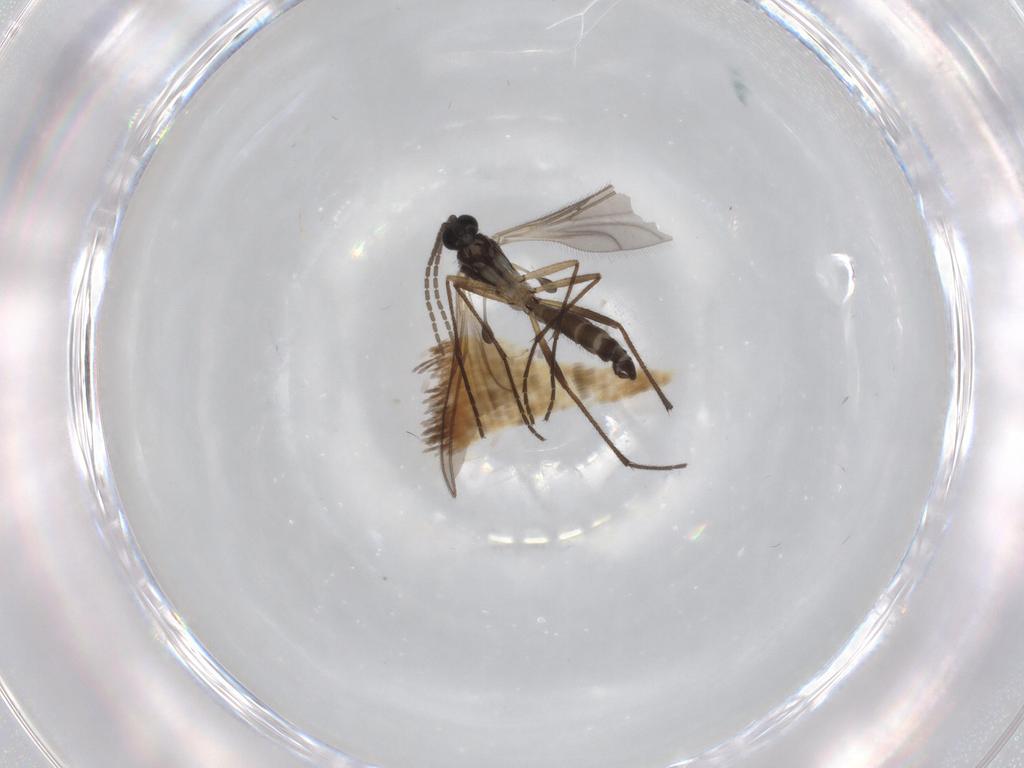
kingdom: Animalia
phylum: Arthropoda
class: Insecta
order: Diptera
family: Sciaridae
